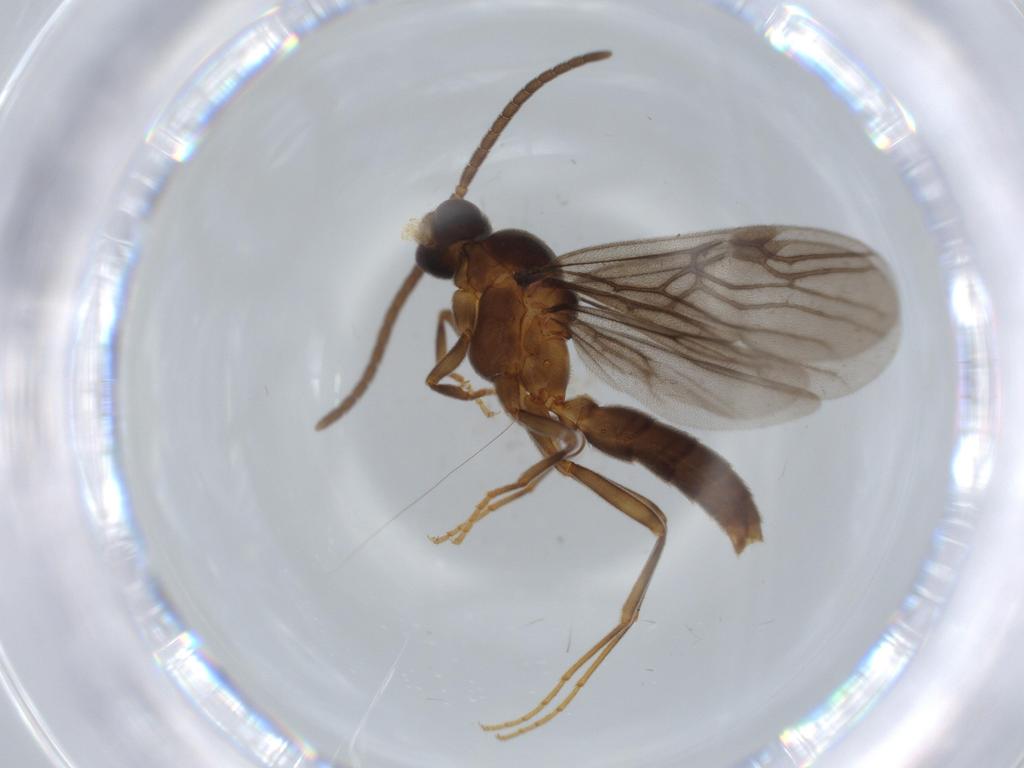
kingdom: Animalia
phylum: Arthropoda
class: Insecta
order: Hymenoptera
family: Formicidae
